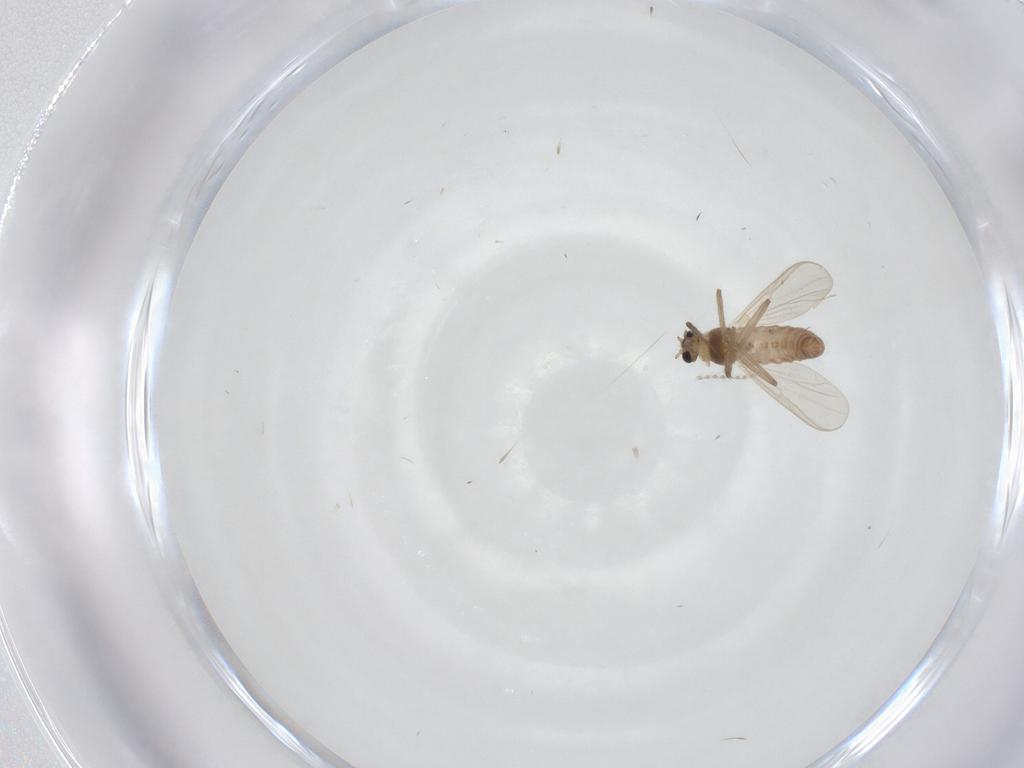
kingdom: Animalia
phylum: Arthropoda
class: Insecta
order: Diptera
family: Chironomidae
